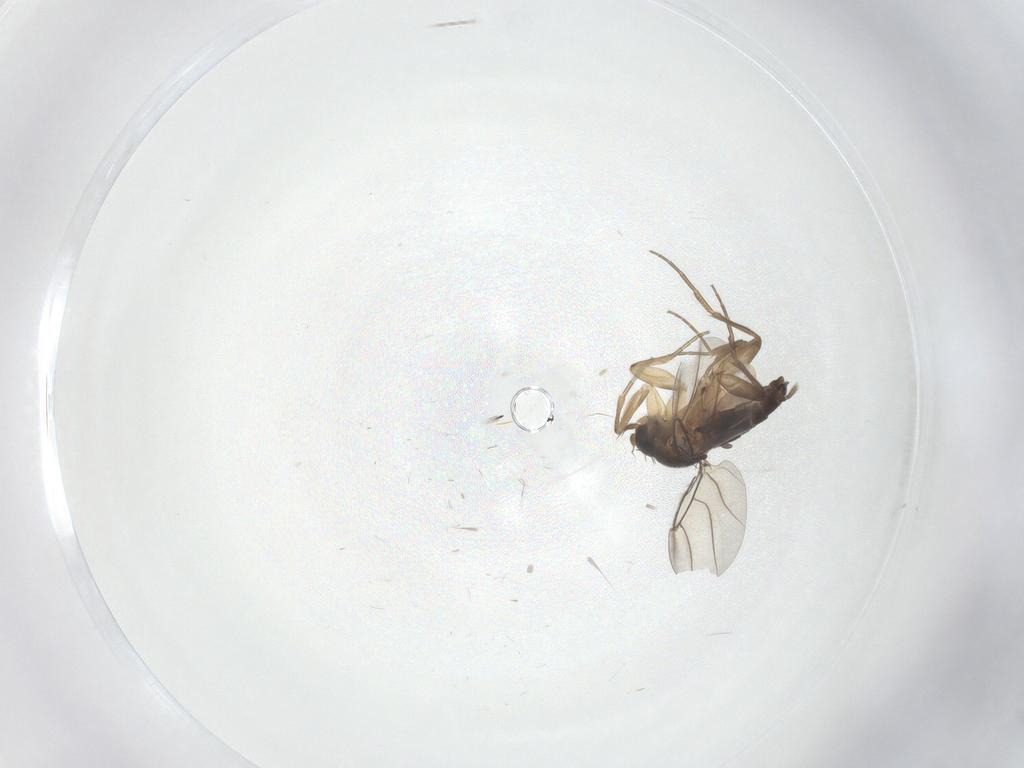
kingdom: Animalia
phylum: Arthropoda
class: Insecta
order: Diptera
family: Phoridae
